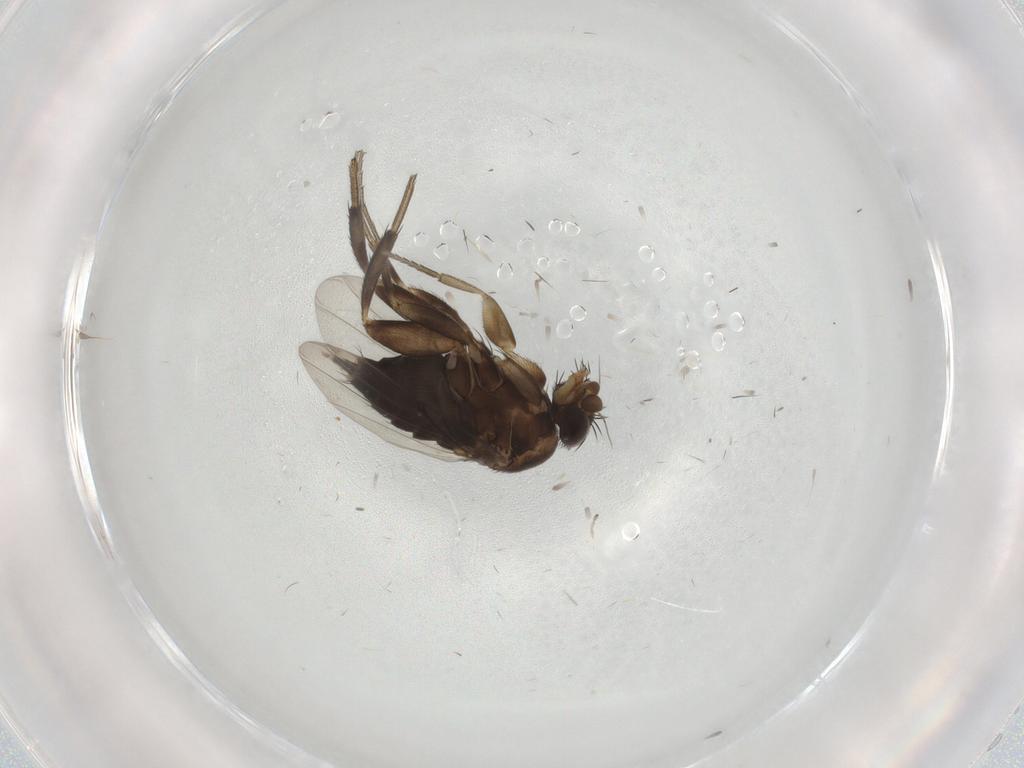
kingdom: Animalia
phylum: Arthropoda
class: Insecta
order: Diptera
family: Phoridae
